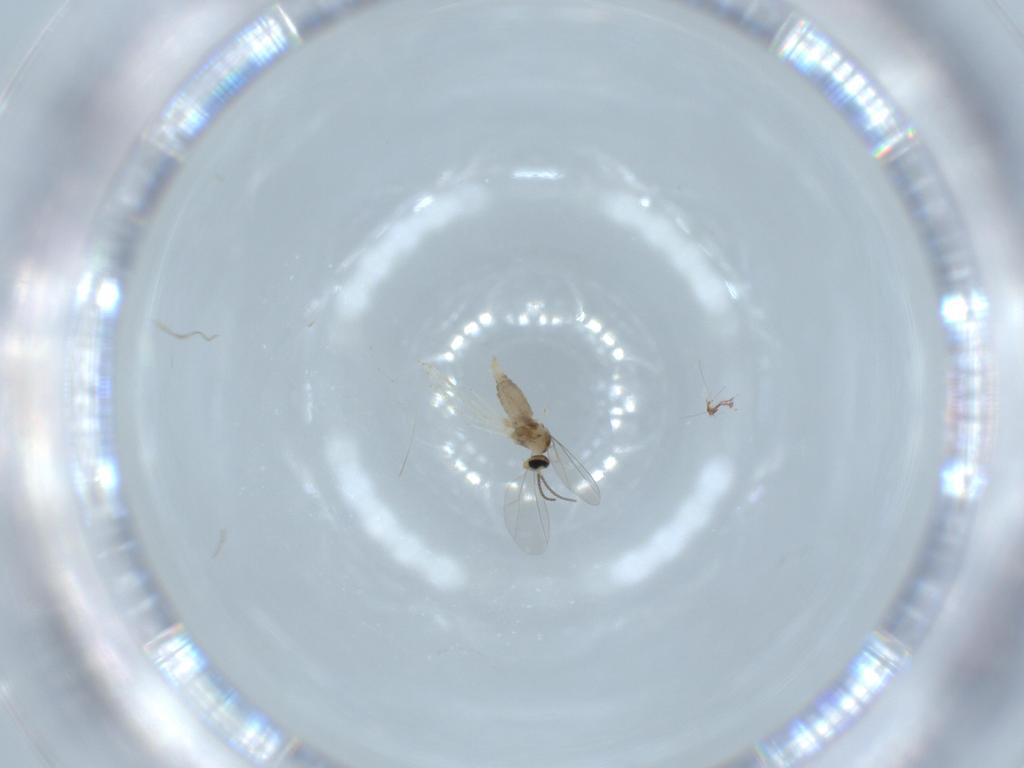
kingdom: Animalia
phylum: Arthropoda
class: Insecta
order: Diptera
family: Cecidomyiidae
